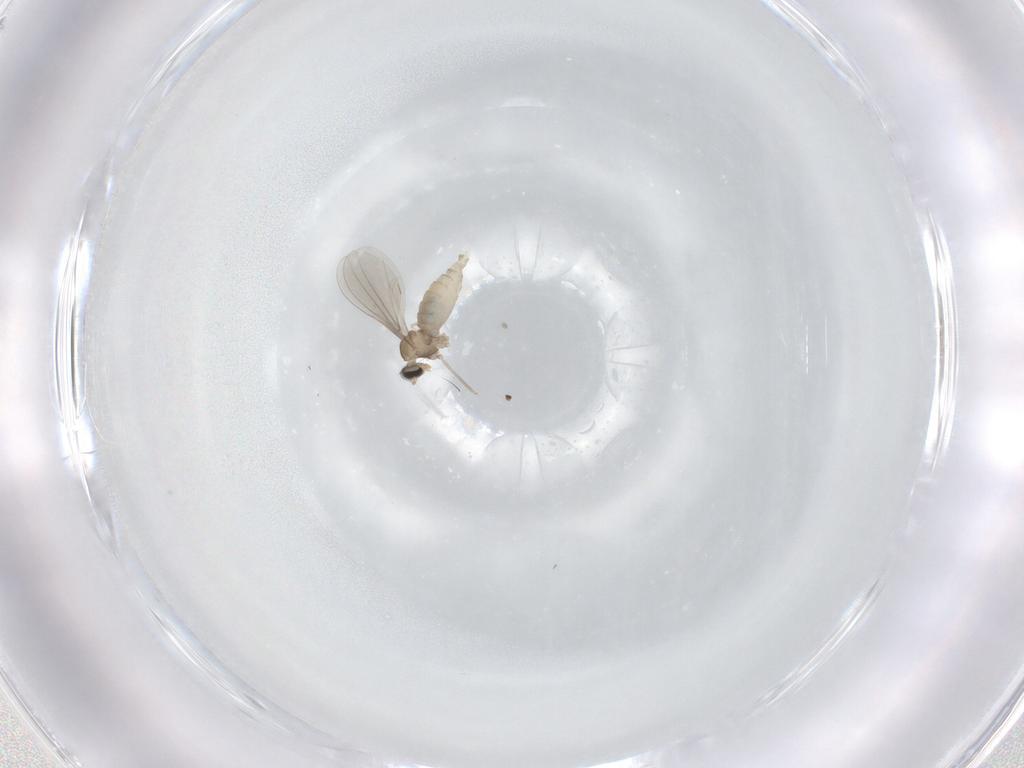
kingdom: Animalia
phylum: Arthropoda
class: Insecta
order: Diptera
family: Cecidomyiidae
